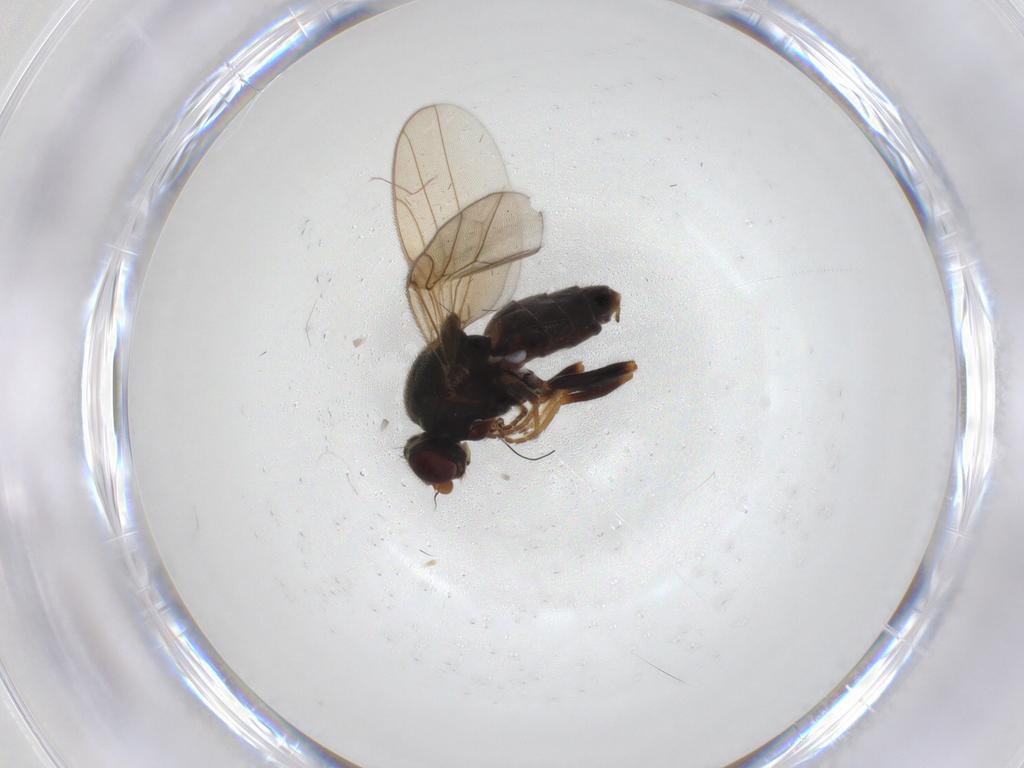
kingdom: Animalia
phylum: Arthropoda
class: Insecta
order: Diptera
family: Chloropidae
